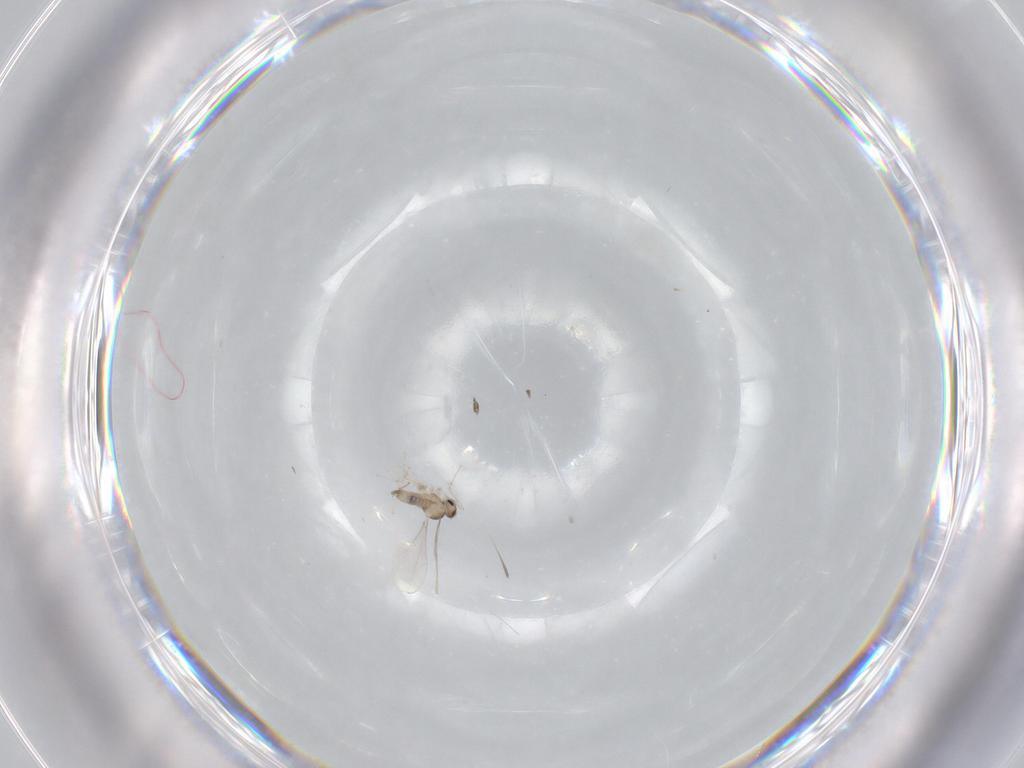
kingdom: Animalia
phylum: Arthropoda
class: Insecta
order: Diptera
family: Cecidomyiidae
